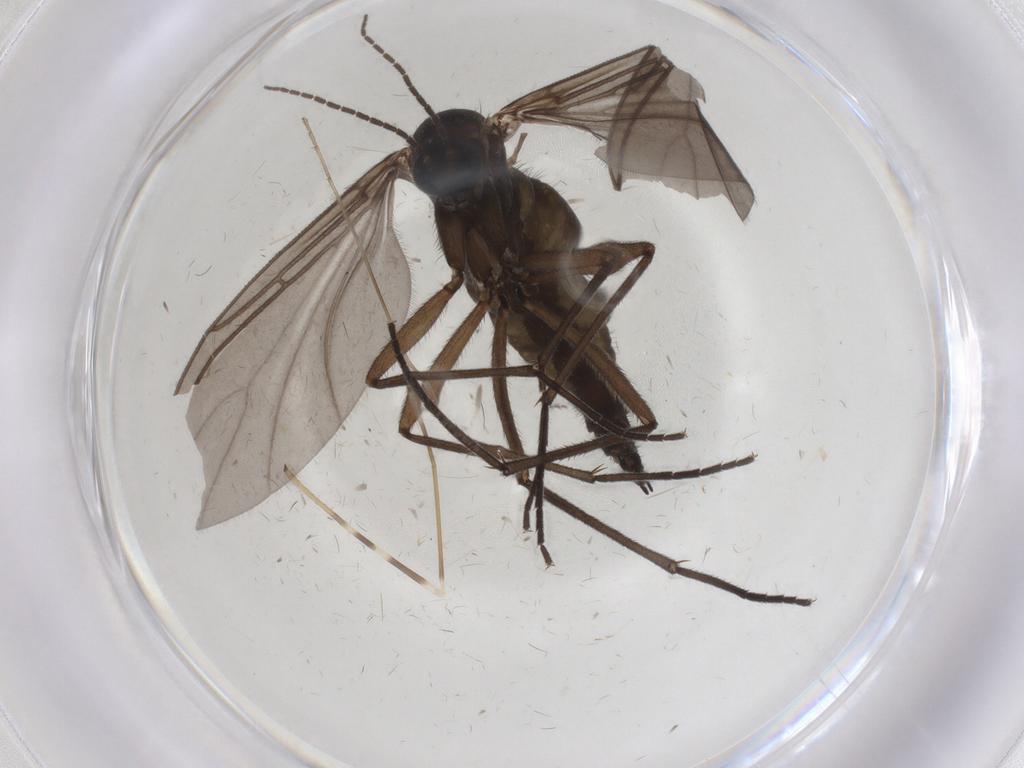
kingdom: Animalia
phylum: Arthropoda
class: Insecta
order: Diptera
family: Sciaridae
